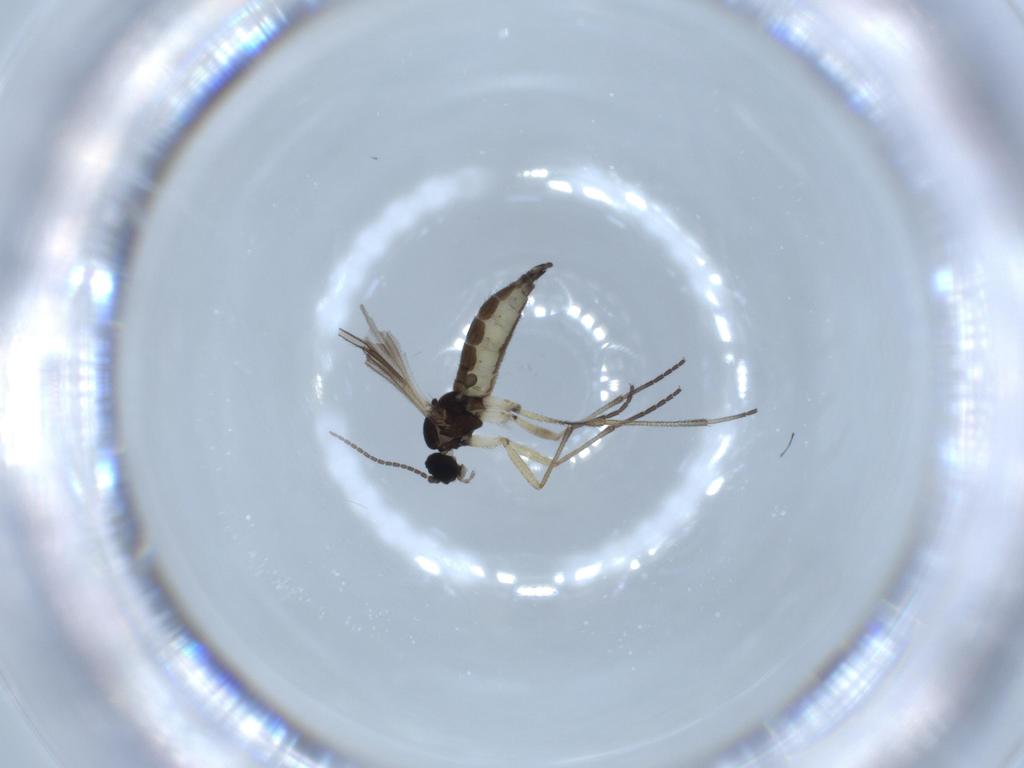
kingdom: Animalia
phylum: Arthropoda
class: Insecta
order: Diptera
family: Sciaridae
